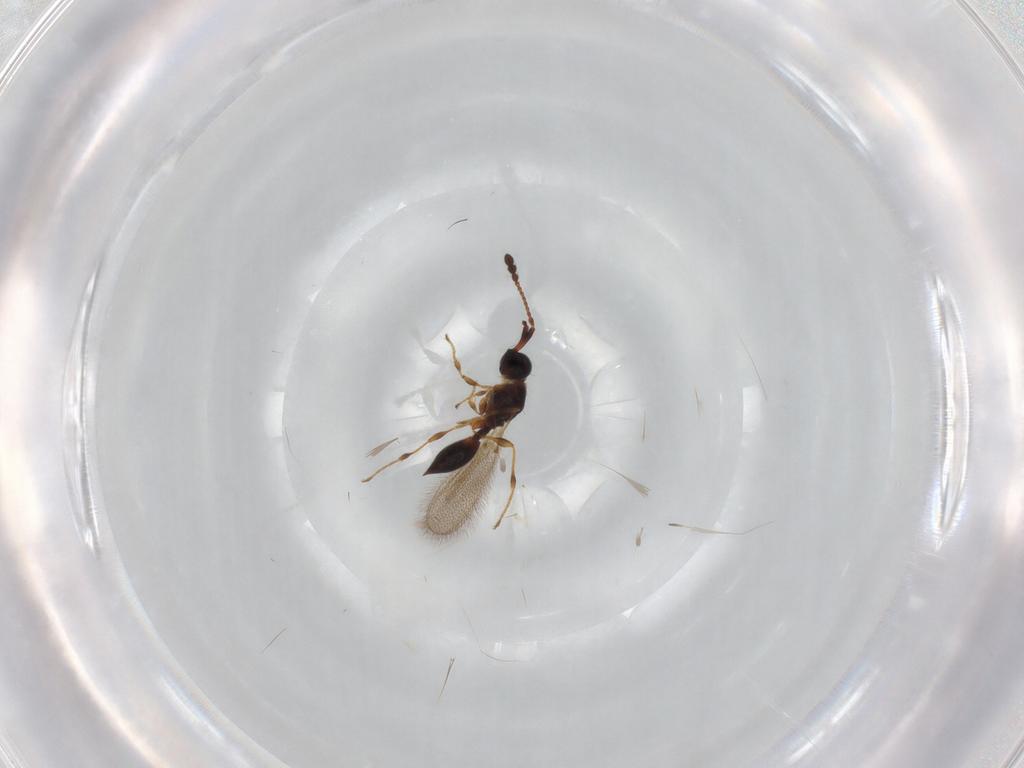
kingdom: Animalia
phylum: Arthropoda
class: Insecta
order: Hymenoptera
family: Diapriidae
